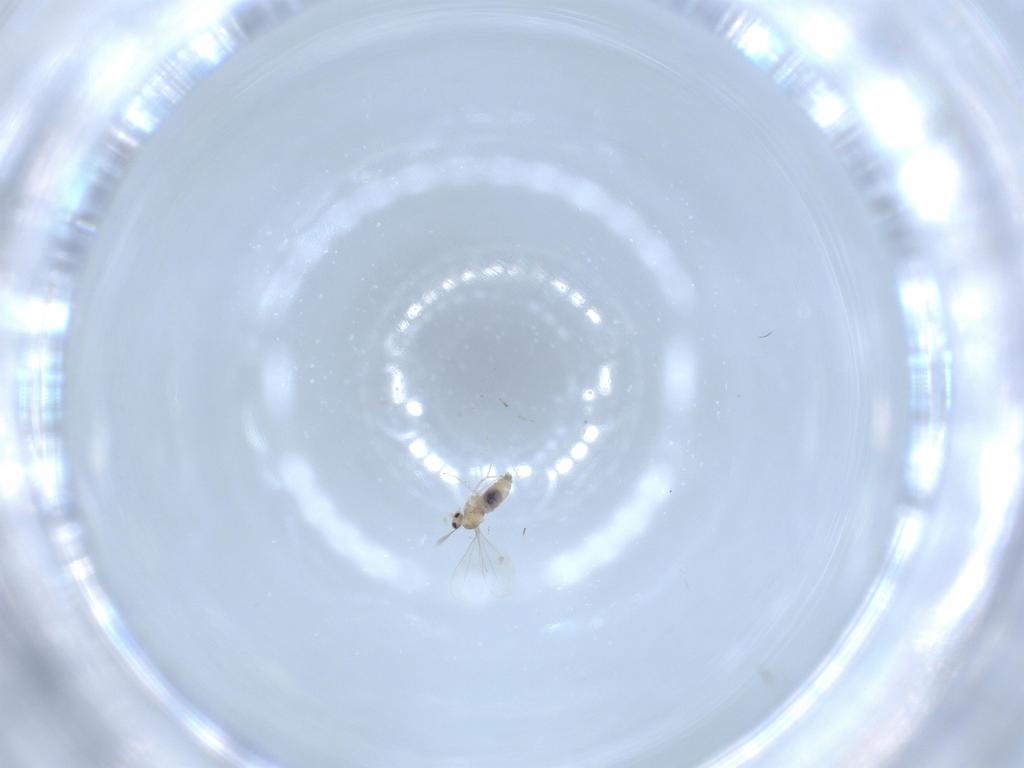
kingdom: Animalia
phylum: Arthropoda
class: Insecta
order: Diptera
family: Cecidomyiidae
